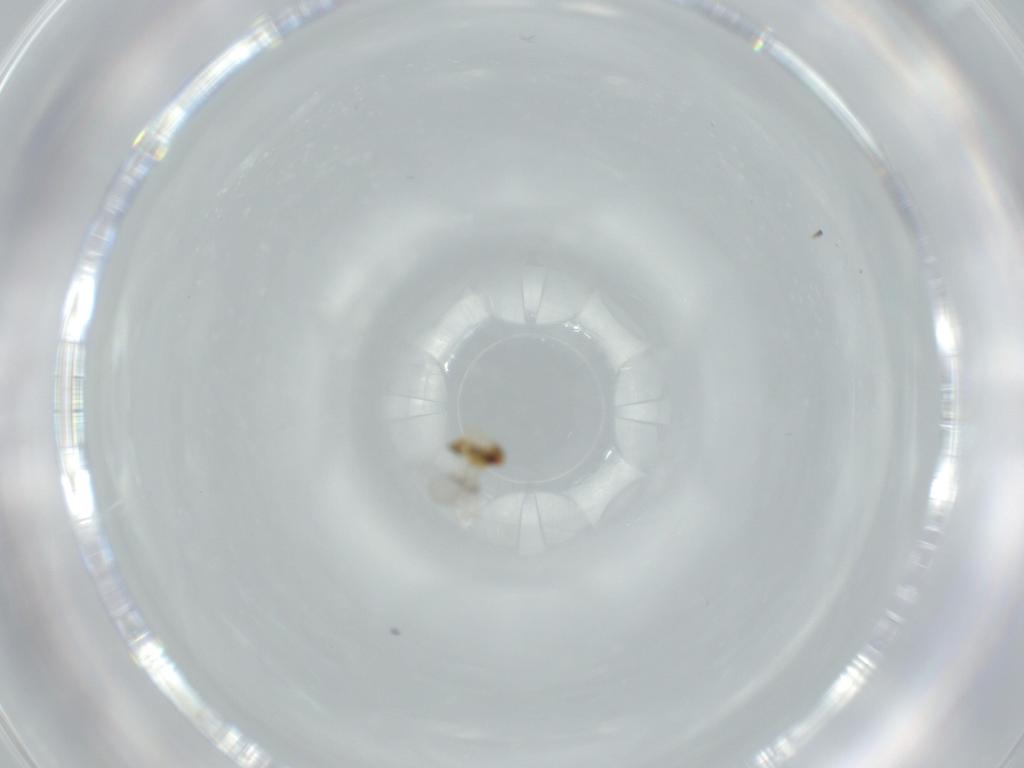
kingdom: Animalia
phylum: Arthropoda
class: Insecta
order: Hymenoptera
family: Trichogrammatidae
